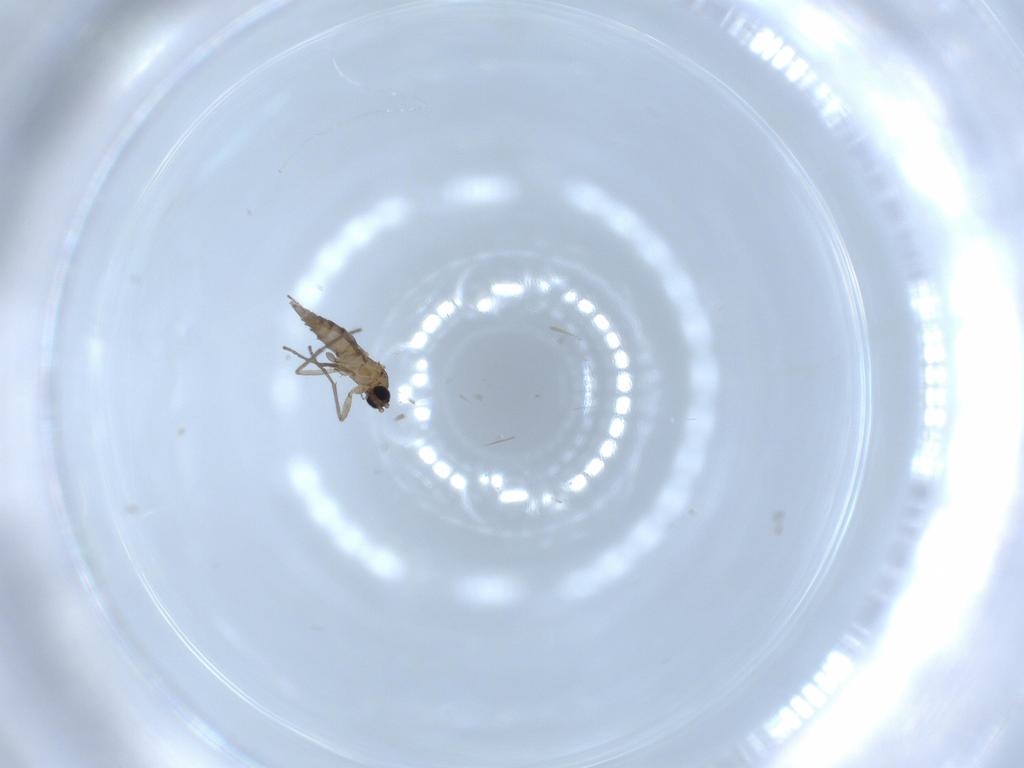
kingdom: Animalia
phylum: Arthropoda
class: Insecta
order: Diptera
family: Sciaridae
